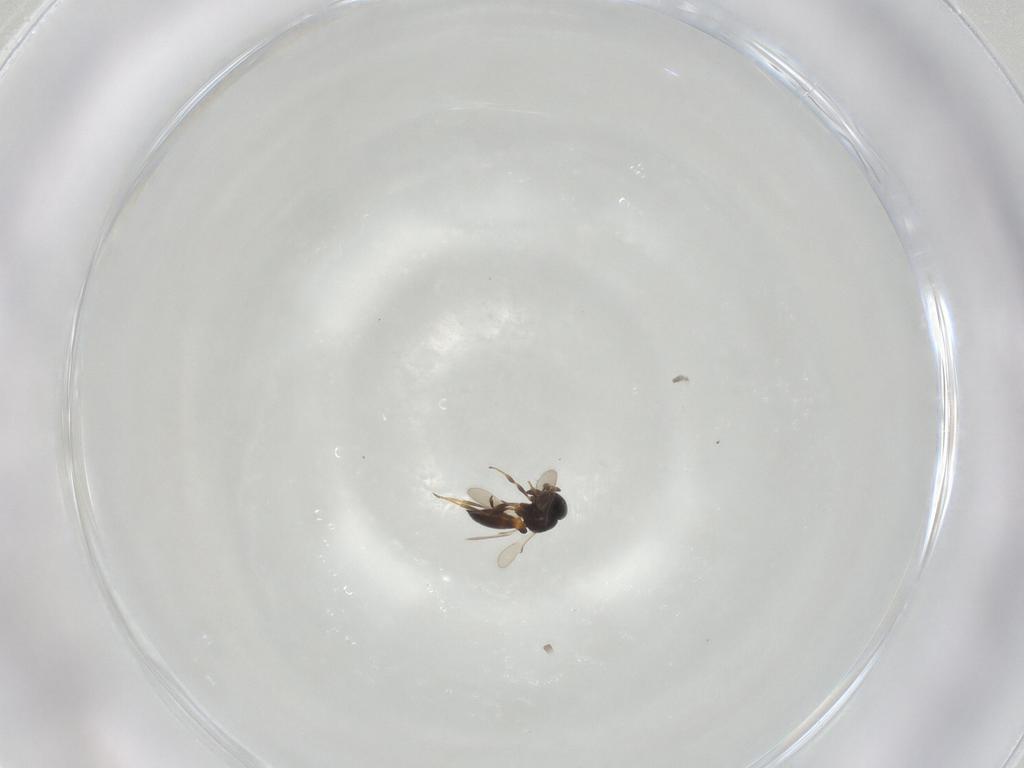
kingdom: Animalia
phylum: Arthropoda
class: Insecta
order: Hymenoptera
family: Scelionidae
